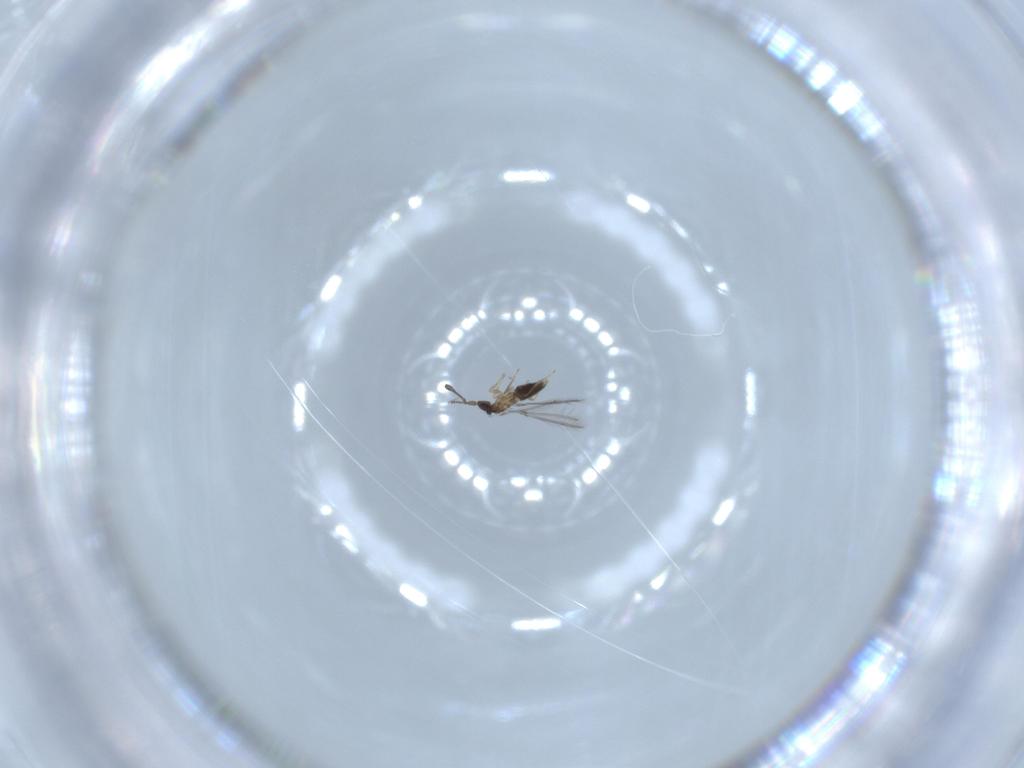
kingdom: Animalia
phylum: Arthropoda
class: Insecta
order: Hymenoptera
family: Mymaridae
